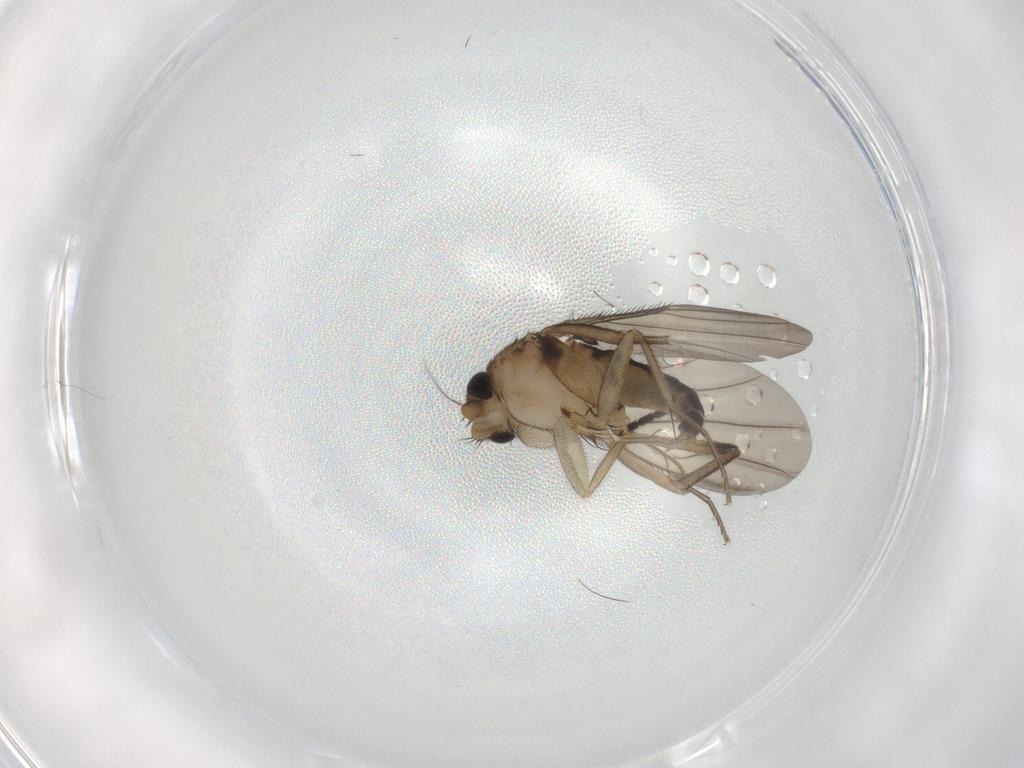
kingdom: Animalia
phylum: Arthropoda
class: Insecta
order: Diptera
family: Phoridae
